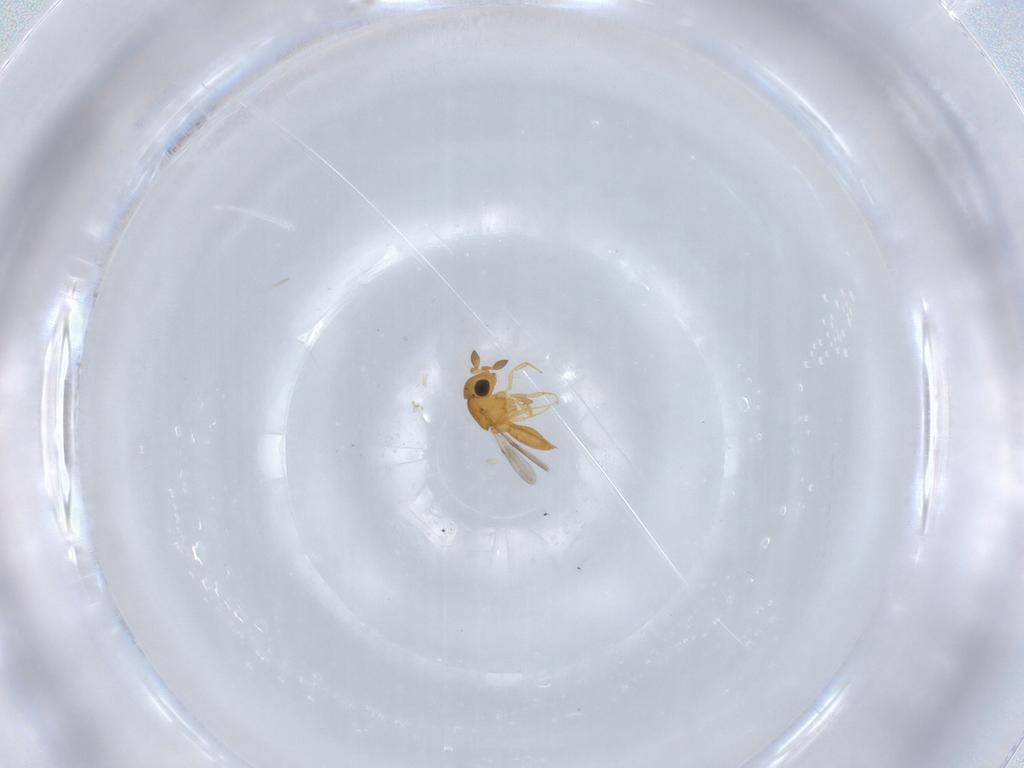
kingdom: Animalia
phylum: Arthropoda
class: Insecta
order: Hymenoptera
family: Scelionidae
